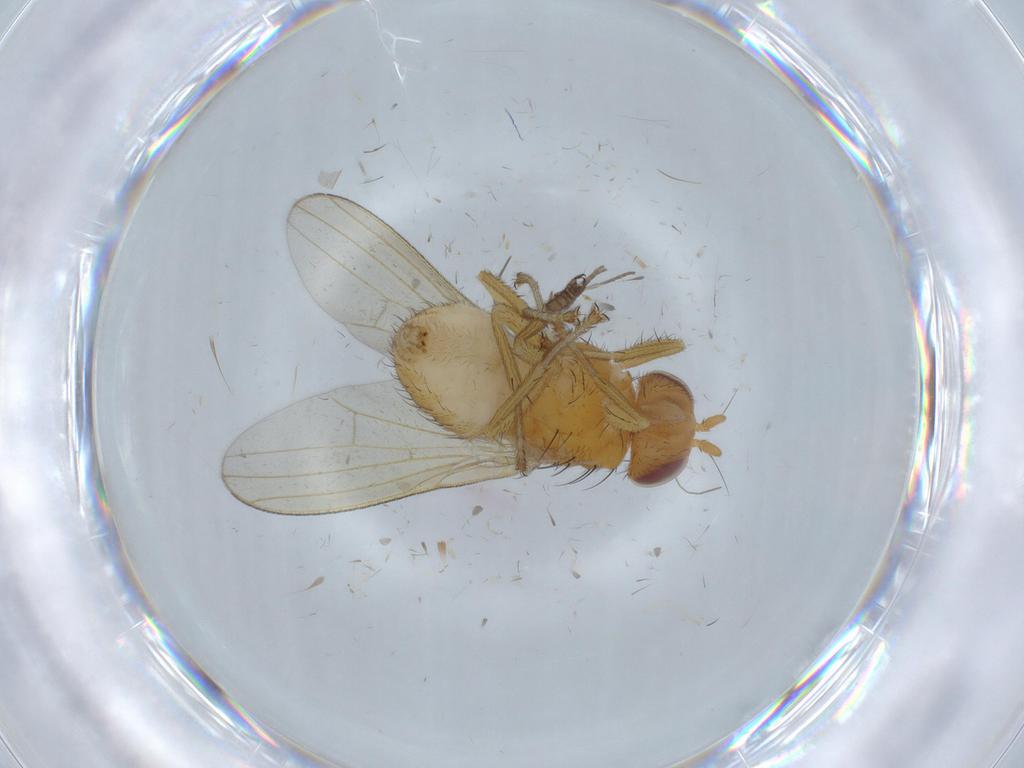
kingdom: Animalia
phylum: Arthropoda
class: Insecta
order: Diptera
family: Lauxaniidae
